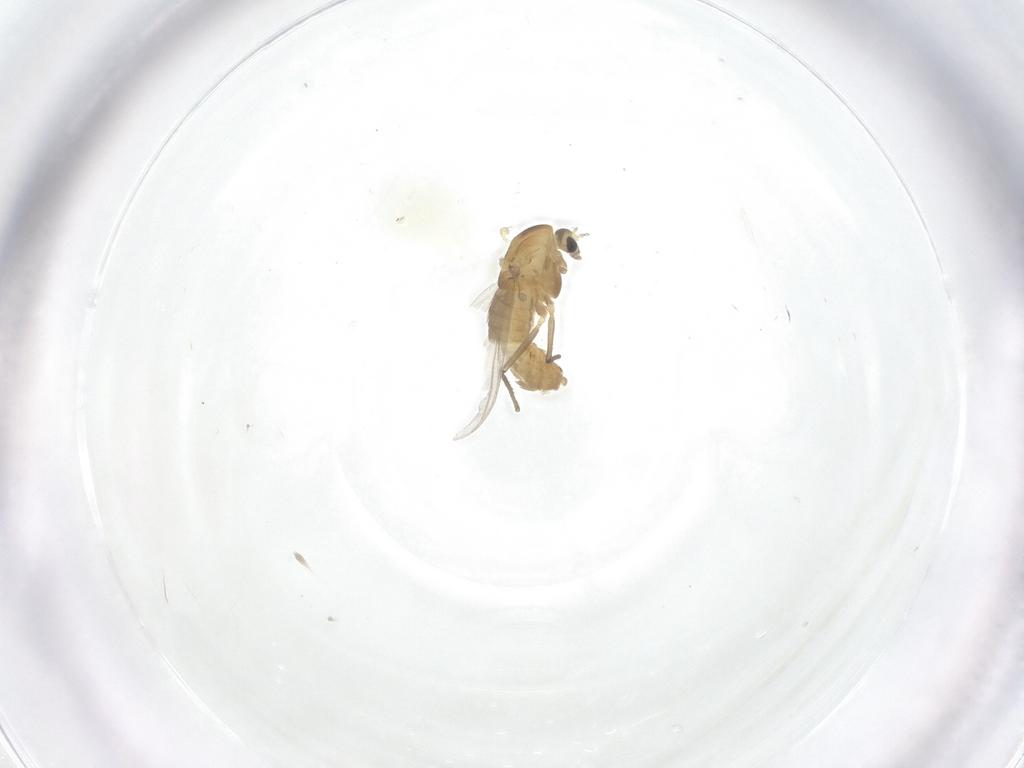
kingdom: Animalia
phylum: Arthropoda
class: Insecta
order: Diptera
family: Chironomidae
